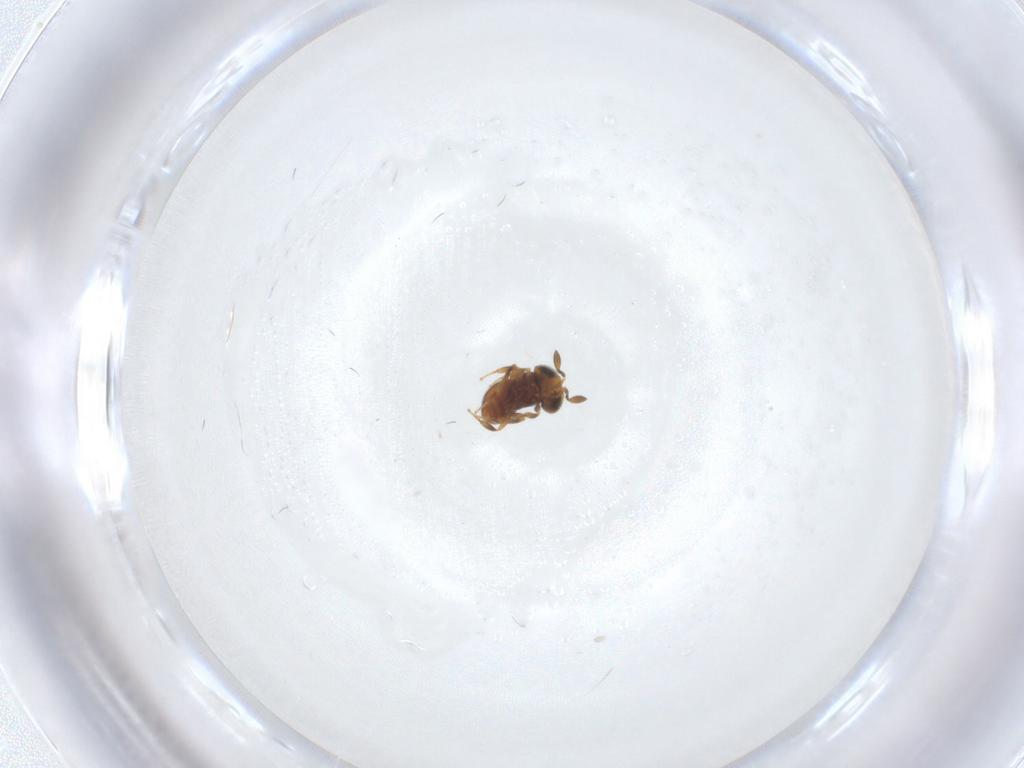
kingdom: Animalia
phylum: Arthropoda
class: Insecta
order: Hymenoptera
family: Scelionidae
